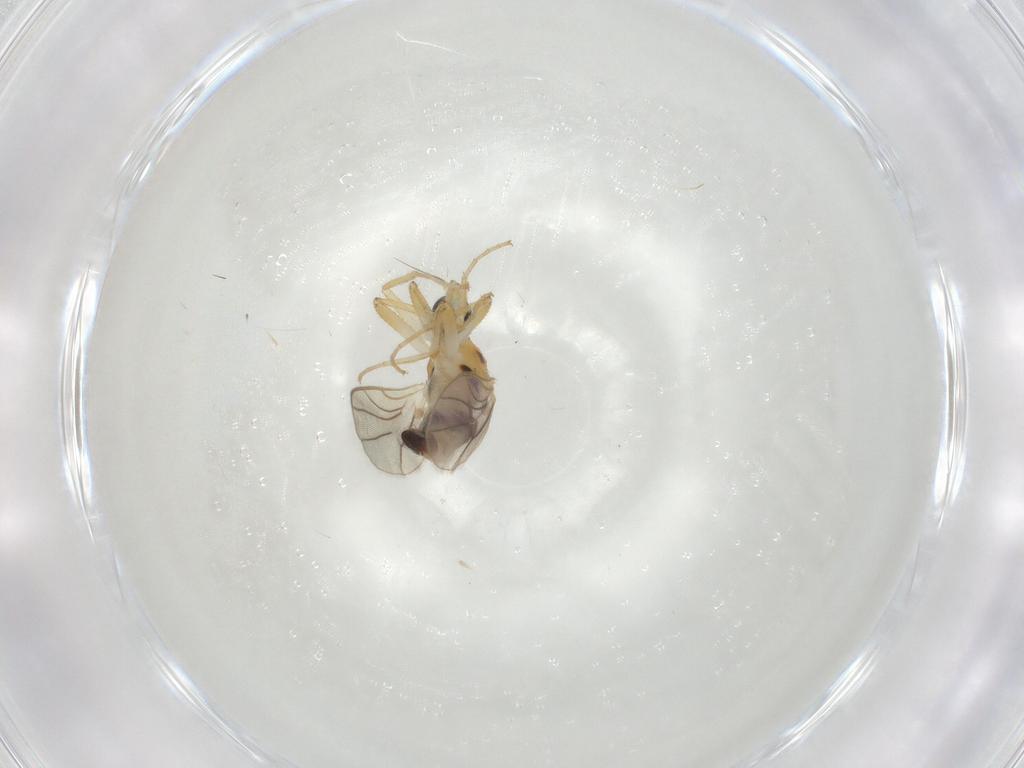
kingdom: Animalia
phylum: Arthropoda
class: Insecta
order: Diptera
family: Hybotidae
